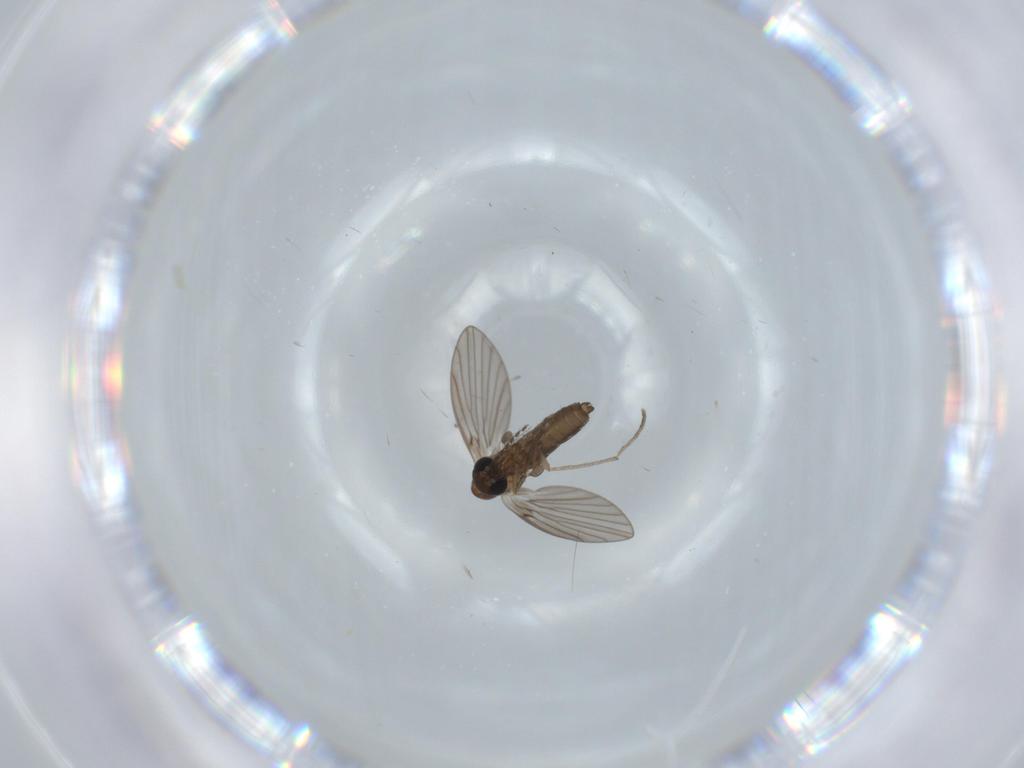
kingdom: Animalia
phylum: Arthropoda
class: Insecta
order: Diptera
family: Psychodidae
